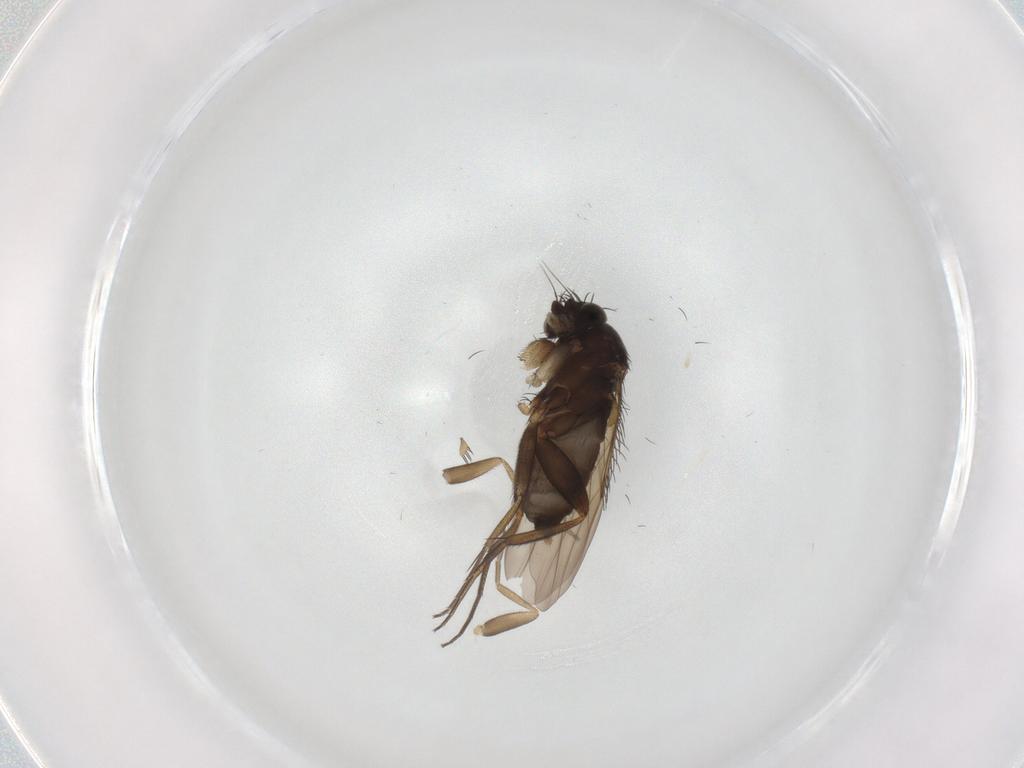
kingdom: Animalia
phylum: Arthropoda
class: Insecta
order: Diptera
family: Phoridae
